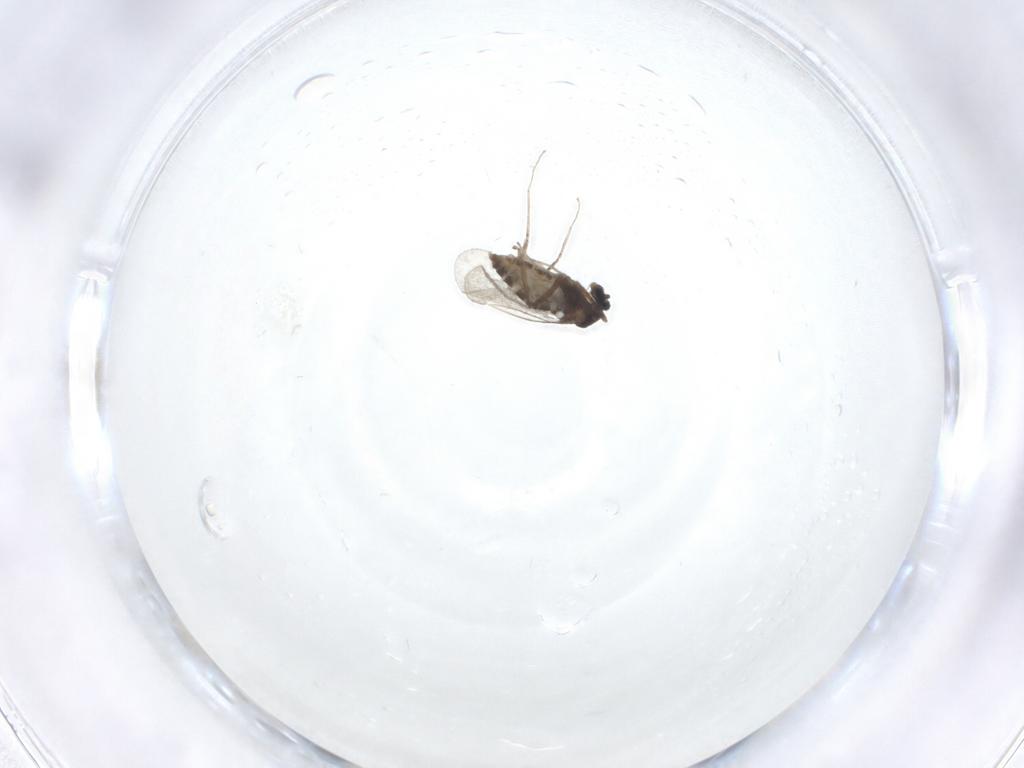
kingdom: Animalia
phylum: Arthropoda
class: Insecta
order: Diptera
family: Cecidomyiidae
